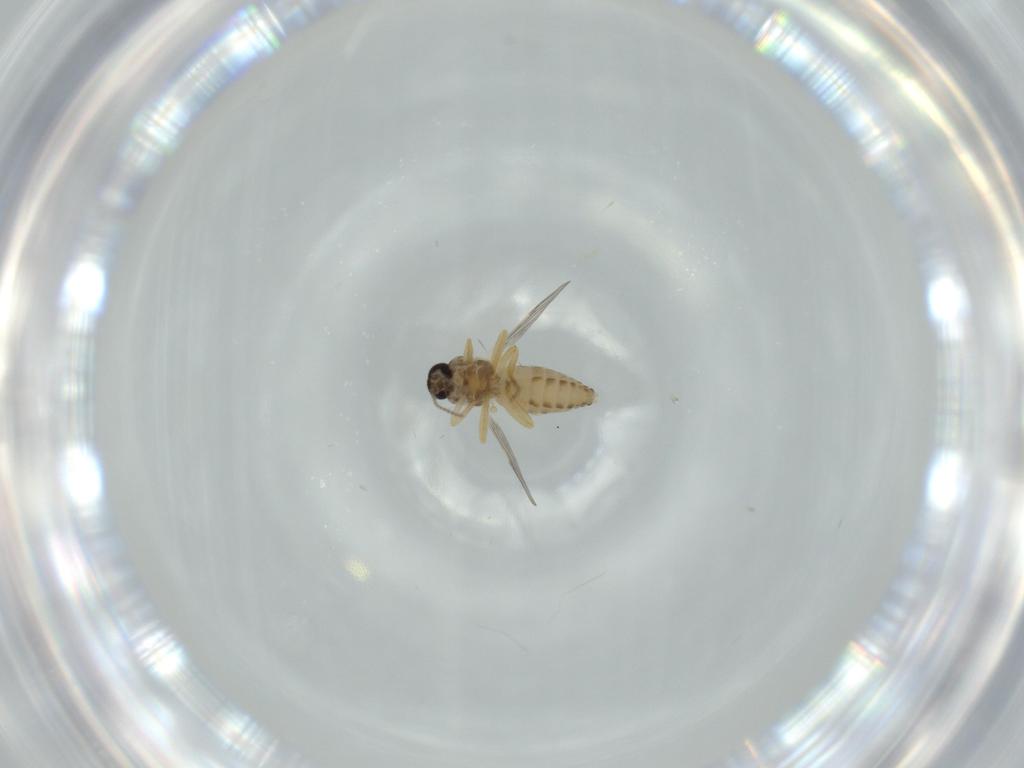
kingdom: Animalia
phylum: Arthropoda
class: Insecta
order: Diptera
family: Ceratopogonidae
